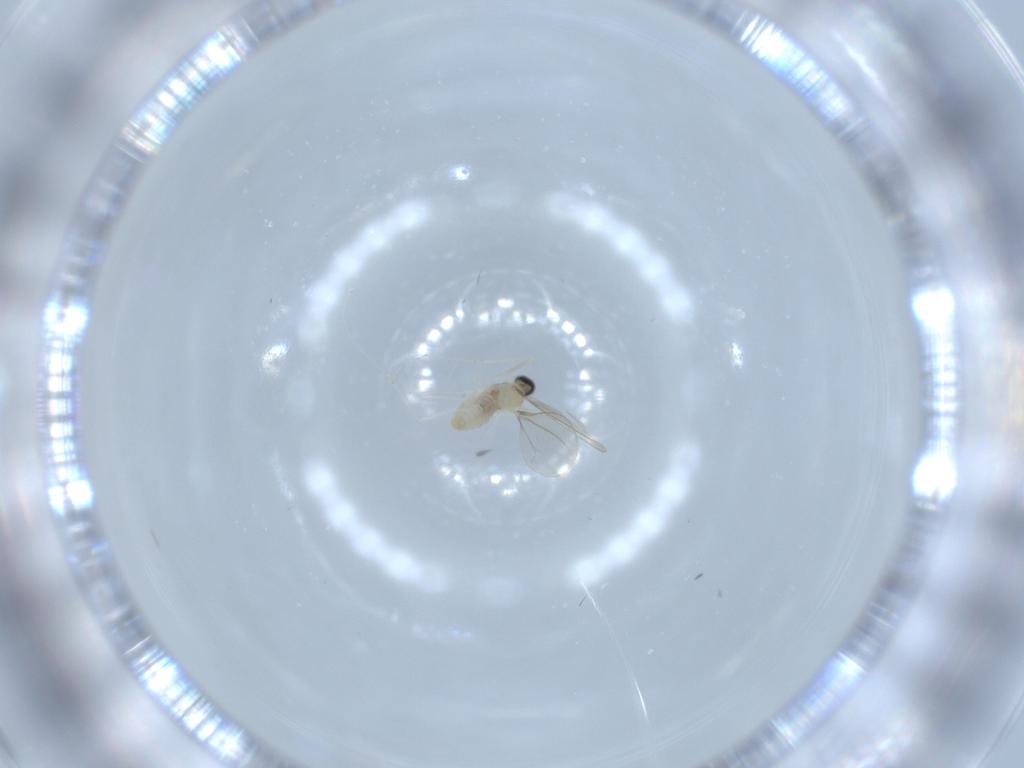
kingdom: Animalia
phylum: Arthropoda
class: Insecta
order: Diptera
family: Cecidomyiidae
